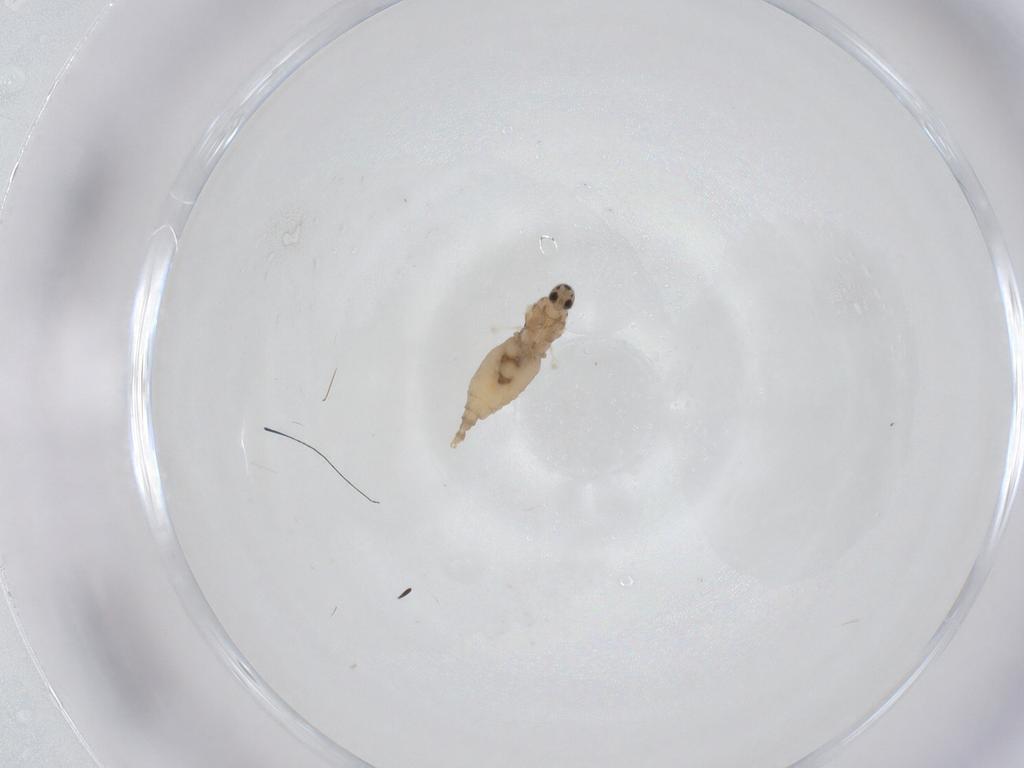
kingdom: Animalia
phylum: Arthropoda
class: Insecta
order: Diptera
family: Cecidomyiidae
